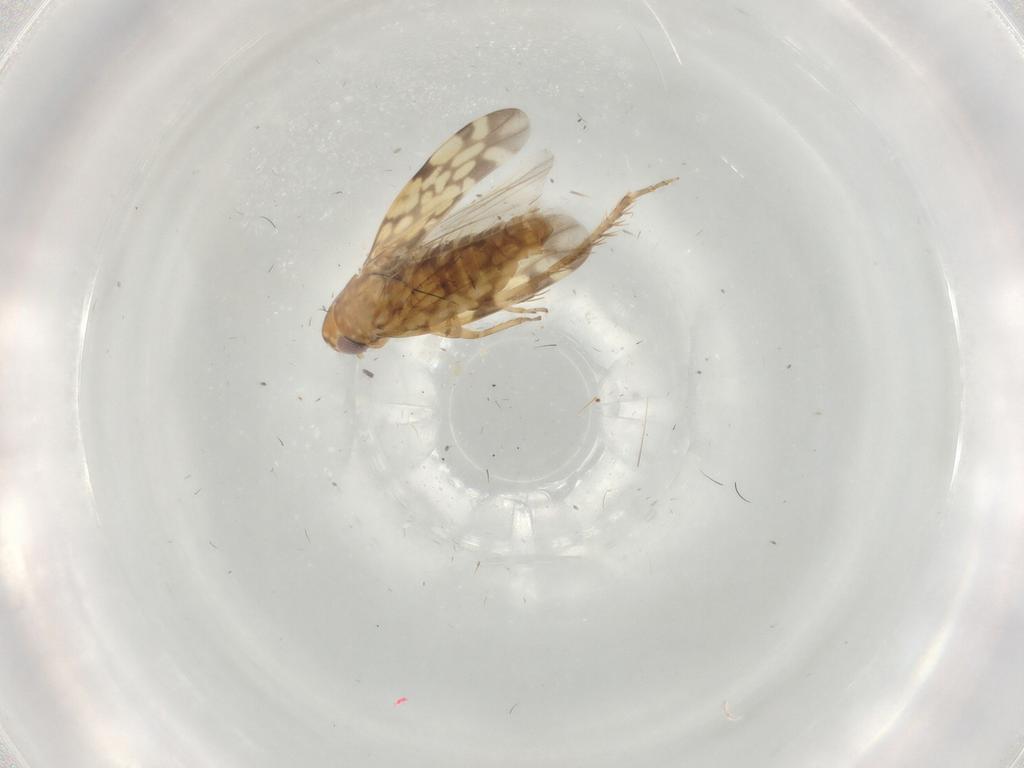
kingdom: Animalia
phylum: Arthropoda
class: Insecta
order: Hemiptera
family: Cicadellidae
